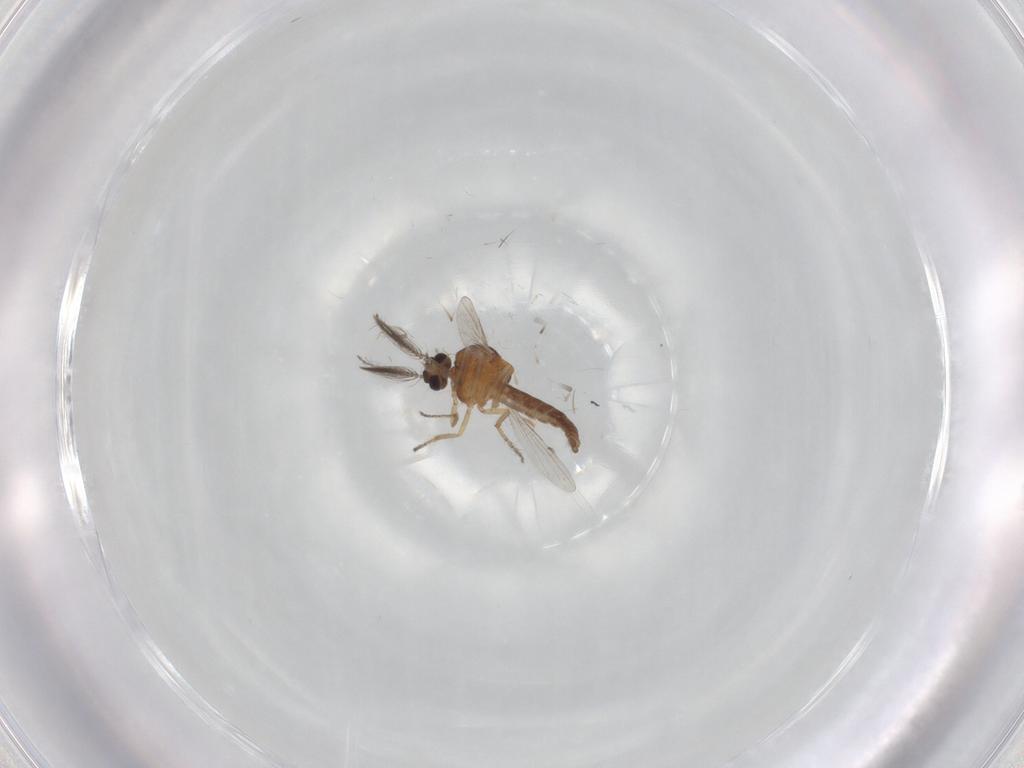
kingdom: Animalia
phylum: Arthropoda
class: Insecta
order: Diptera
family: Ceratopogonidae
